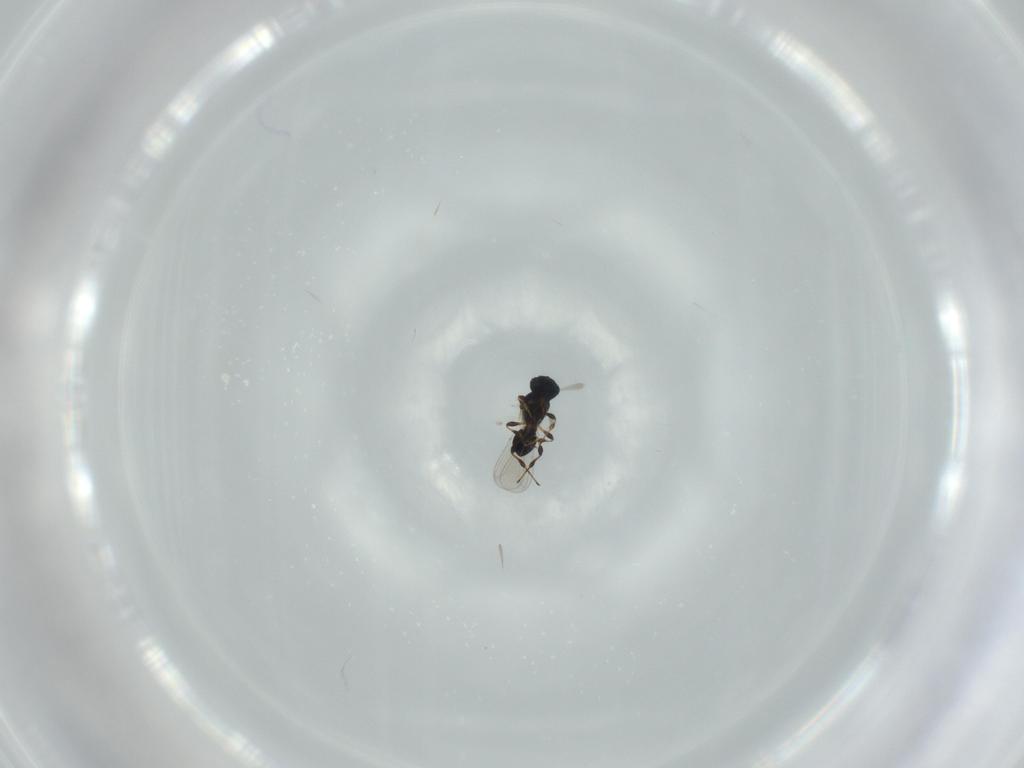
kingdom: Animalia
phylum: Arthropoda
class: Insecta
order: Hymenoptera
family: Platygastridae
